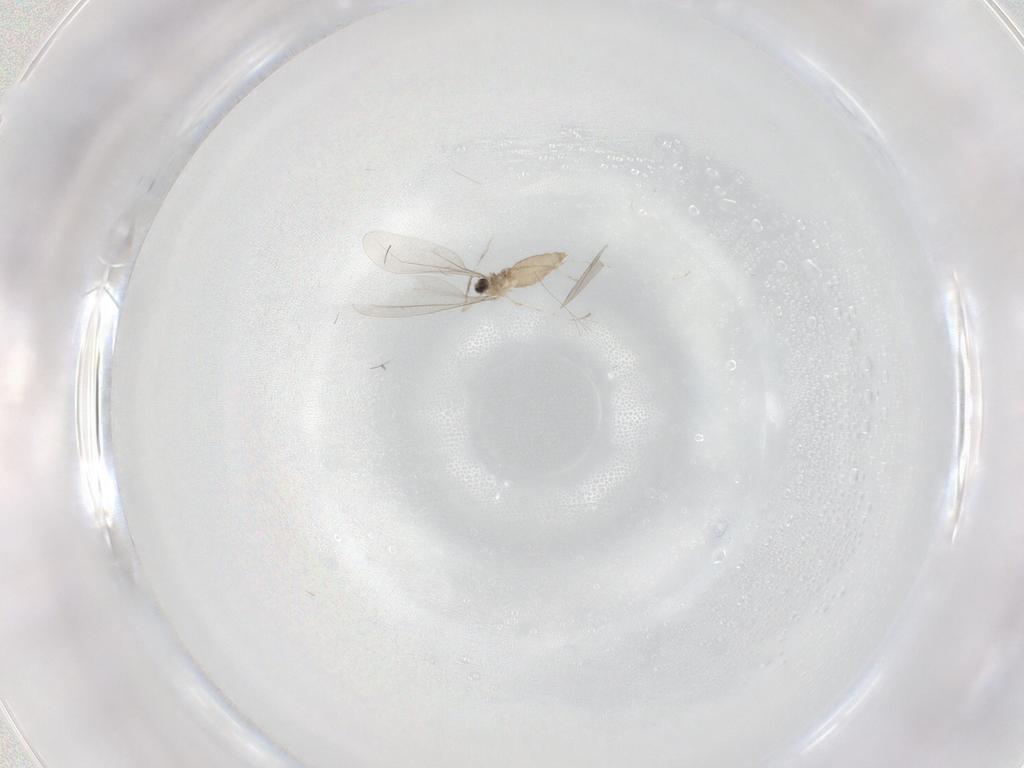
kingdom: Animalia
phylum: Arthropoda
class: Insecta
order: Diptera
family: Cecidomyiidae
